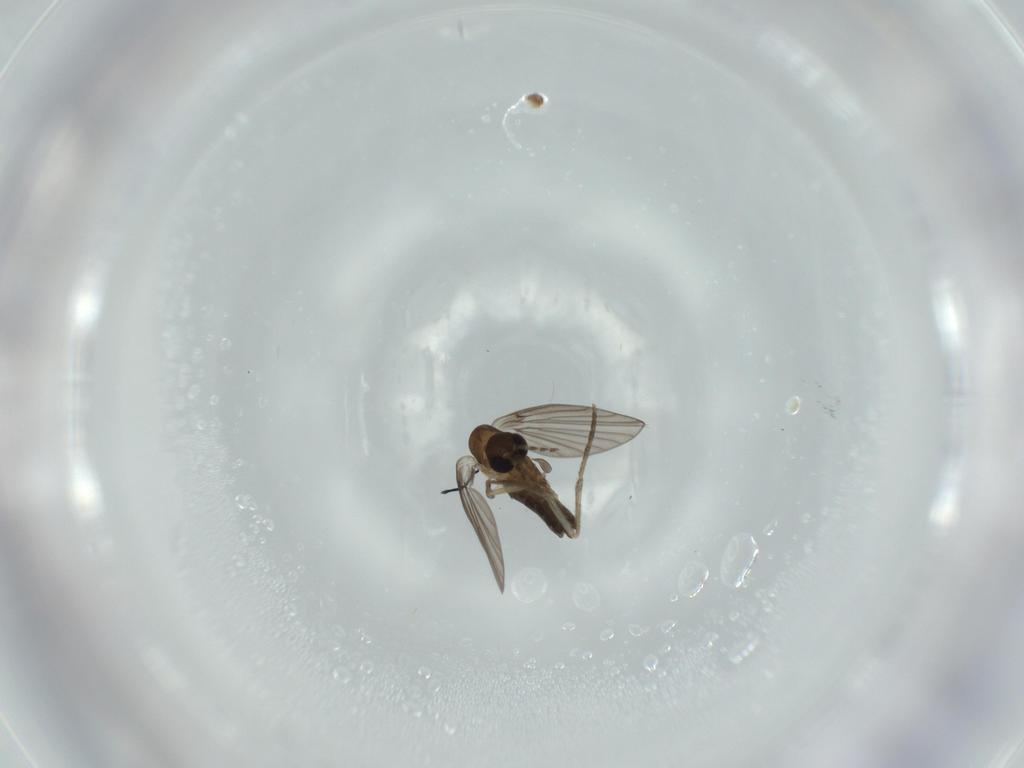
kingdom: Animalia
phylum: Arthropoda
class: Insecta
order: Diptera
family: Psychodidae
